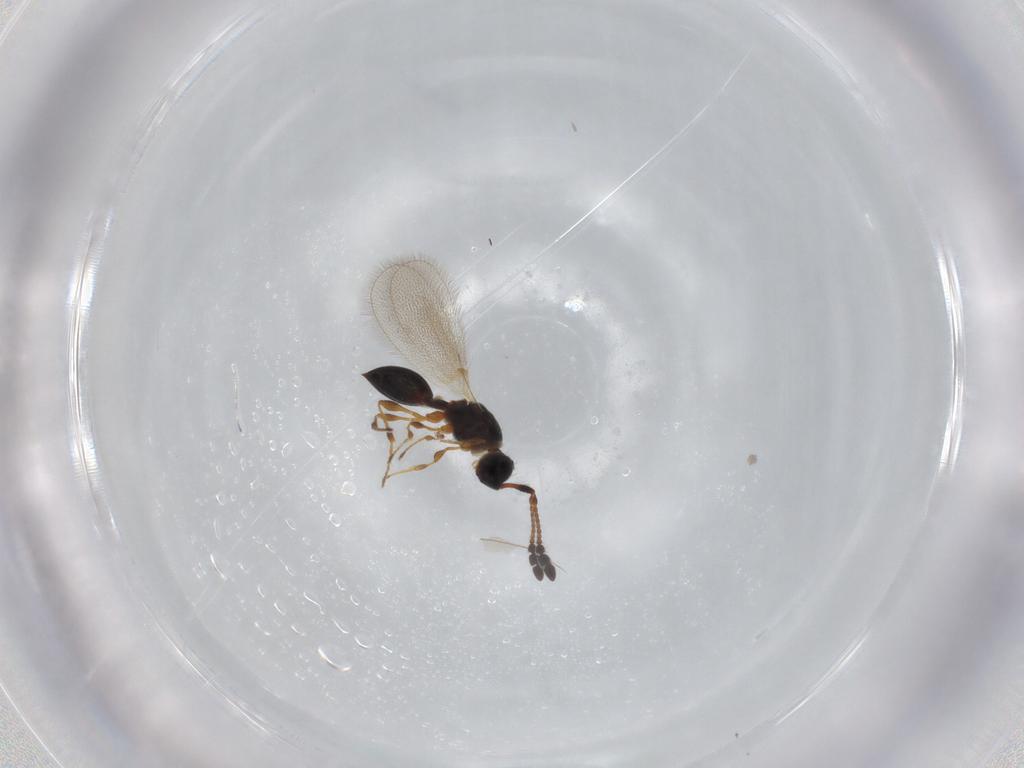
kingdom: Animalia
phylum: Arthropoda
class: Insecta
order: Hymenoptera
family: Diapriidae
